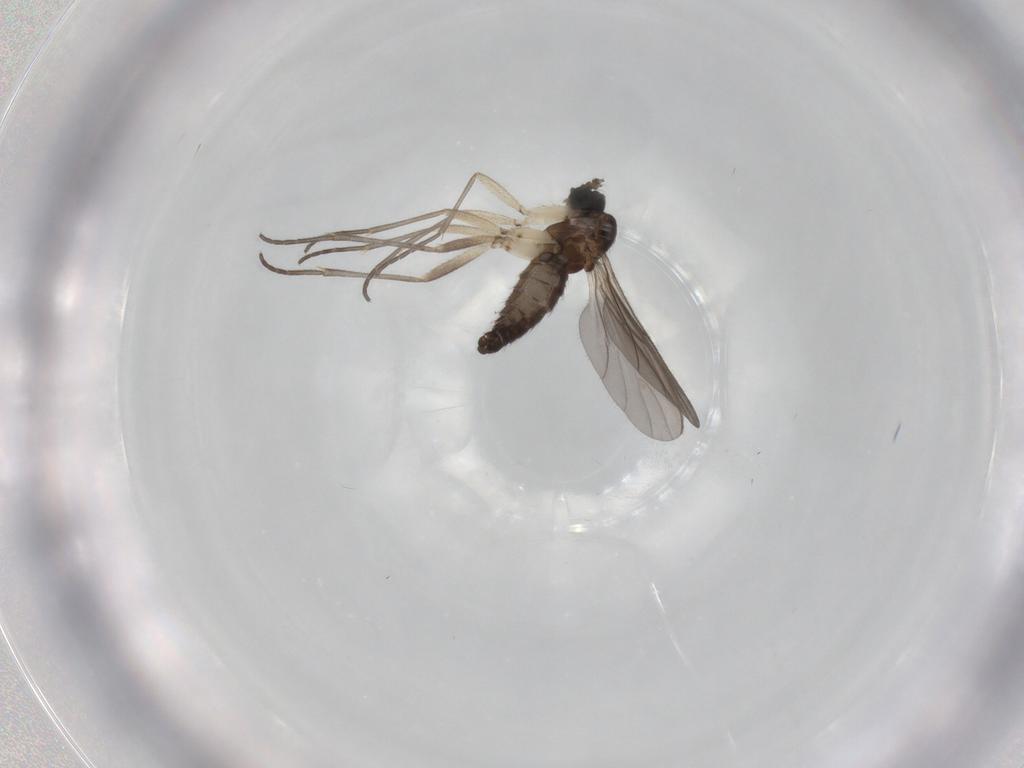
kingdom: Animalia
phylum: Arthropoda
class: Insecta
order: Diptera
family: Sciaridae
